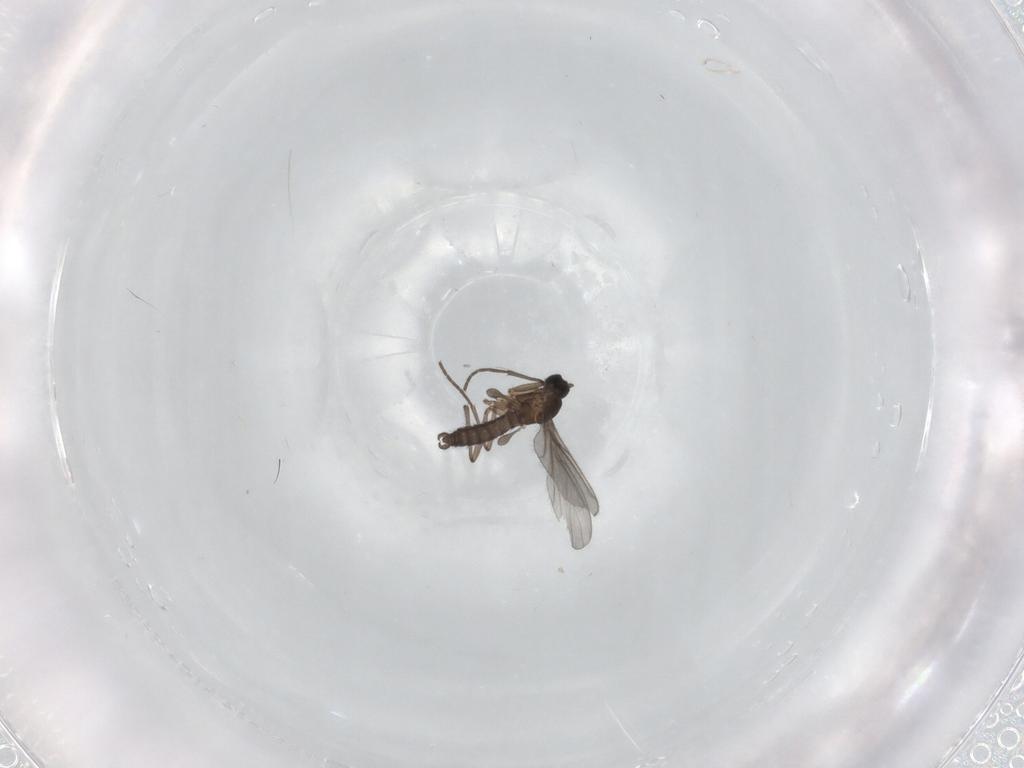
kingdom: Animalia
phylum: Arthropoda
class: Insecta
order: Diptera
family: Sciaridae
